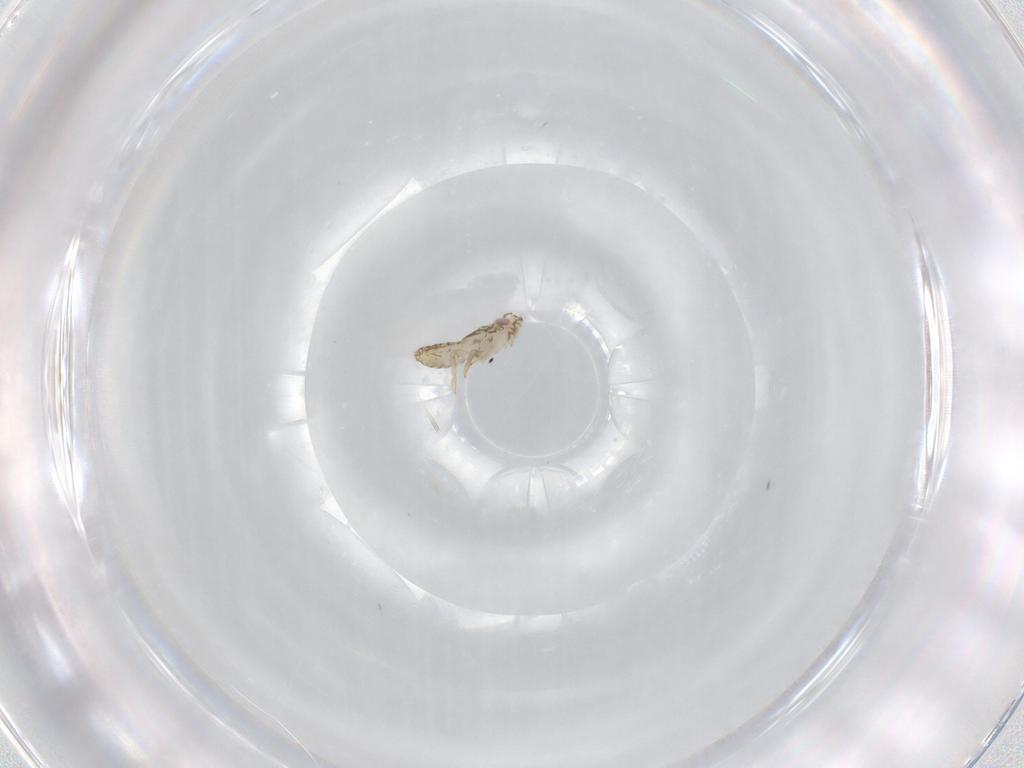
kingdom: Animalia
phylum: Arthropoda
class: Insecta
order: Hemiptera
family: Delphacidae
